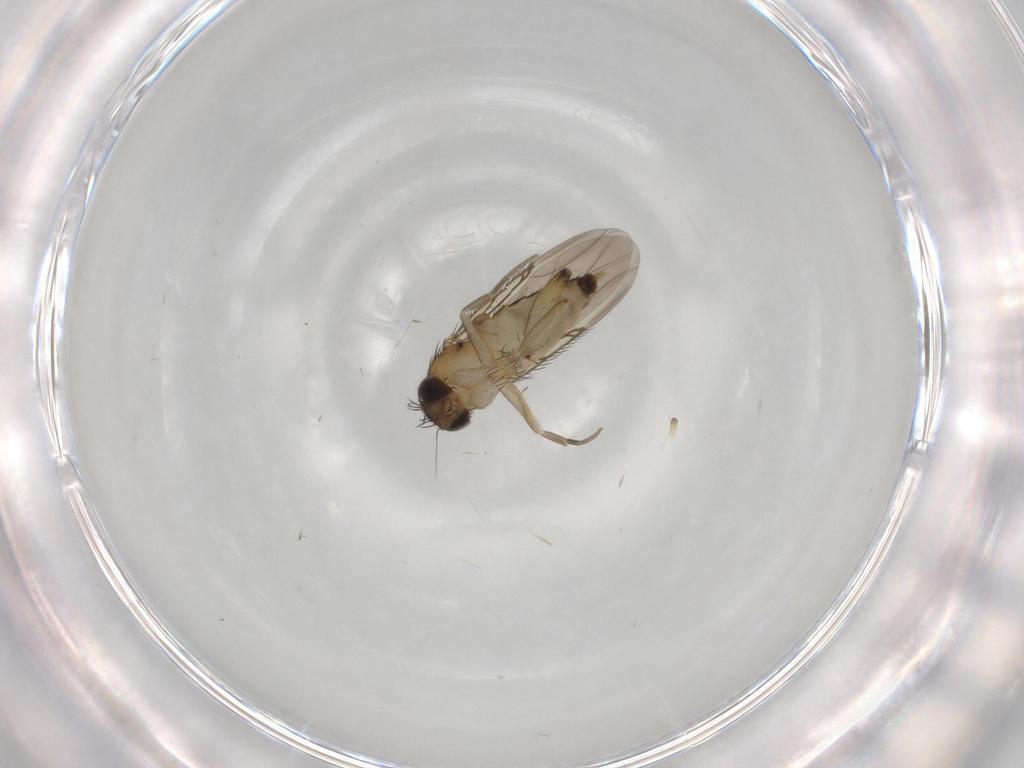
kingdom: Animalia
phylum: Arthropoda
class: Insecta
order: Diptera
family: Phoridae
